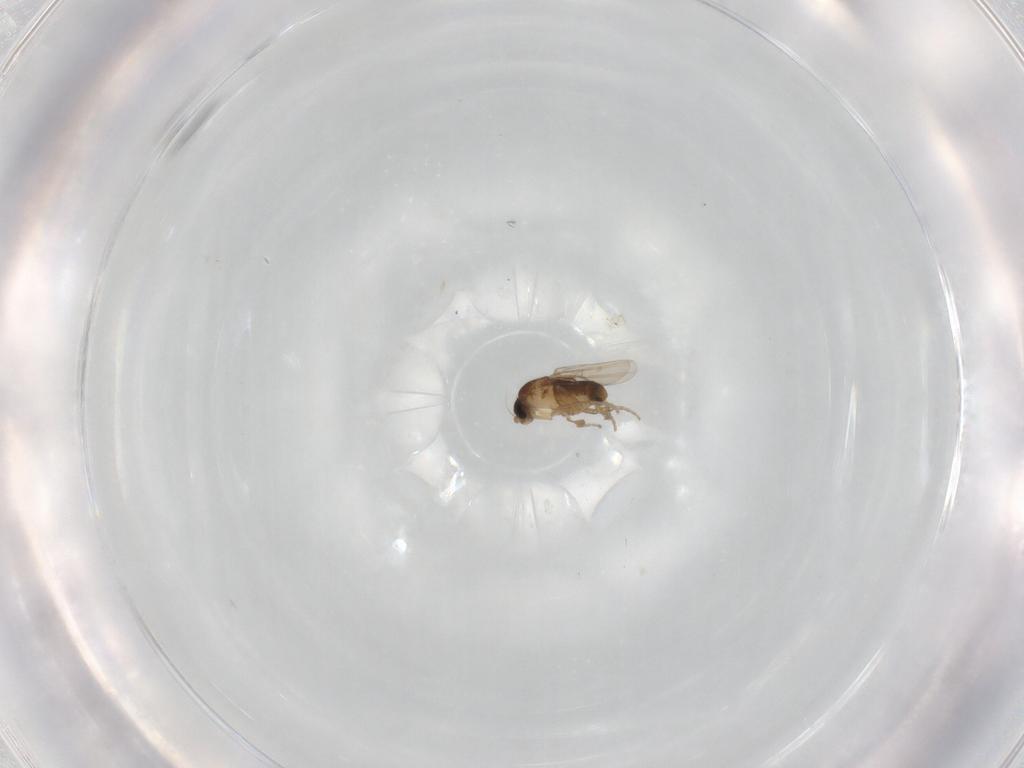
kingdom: Animalia
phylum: Arthropoda
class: Insecta
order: Diptera
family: Phoridae
